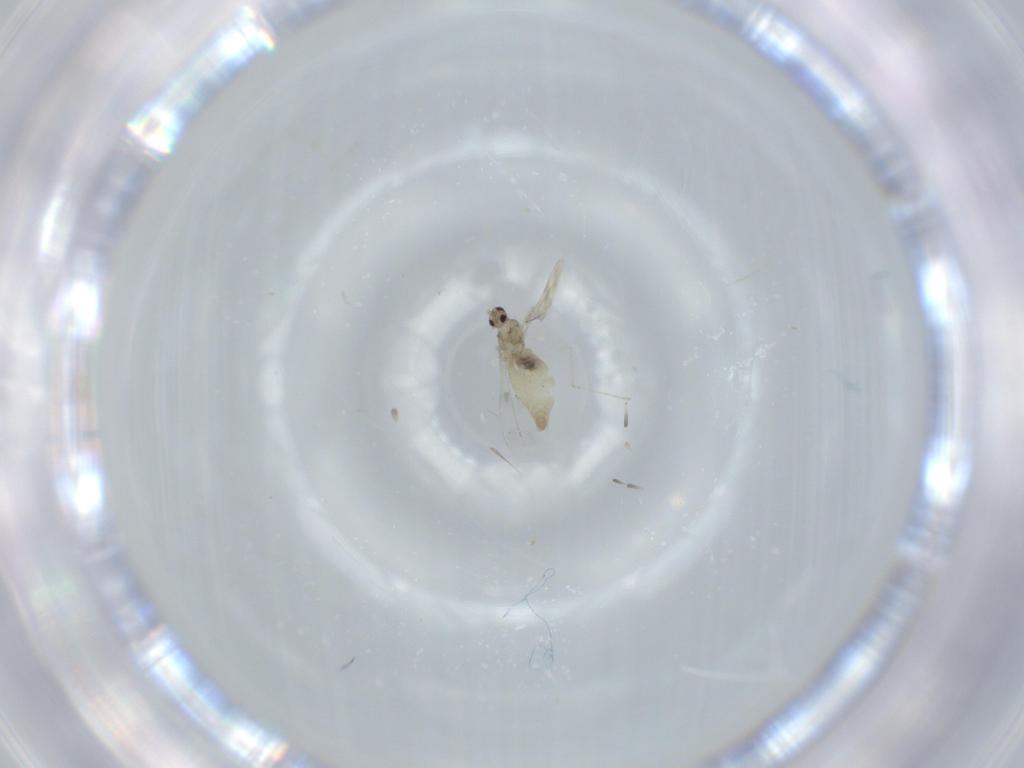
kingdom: Animalia
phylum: Arthropoda
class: Insecta
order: Diptera
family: Cecidomyiidae
